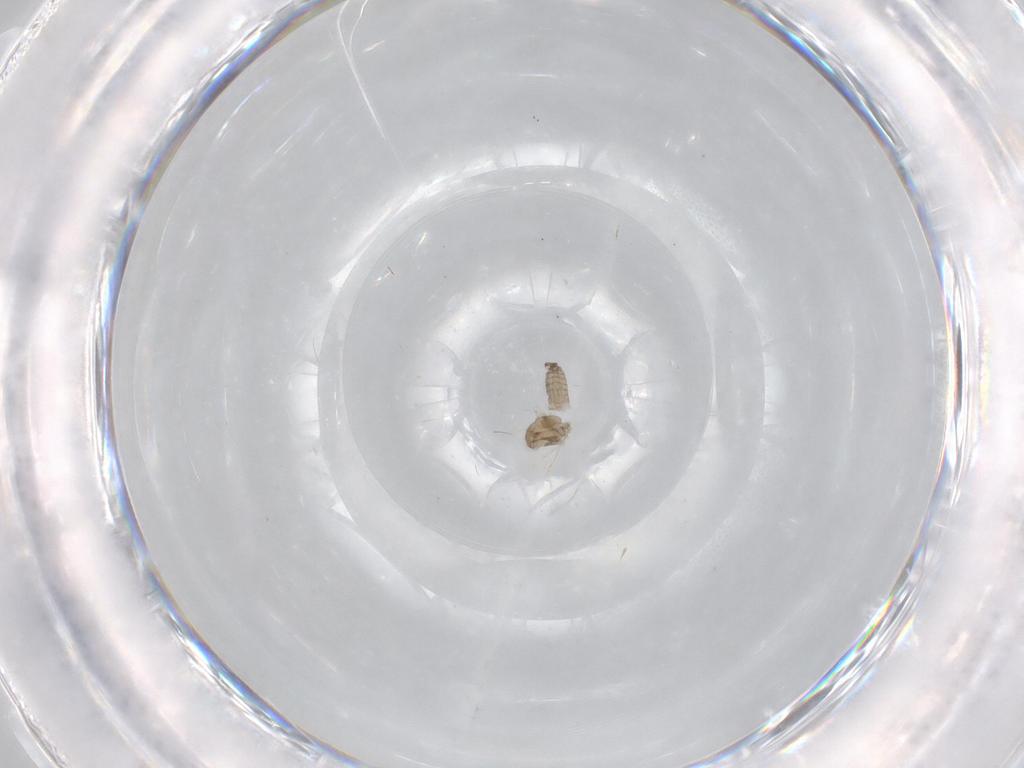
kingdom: Animalia
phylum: Arthropoda
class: Insecta
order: Diptera
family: Limoniidae
